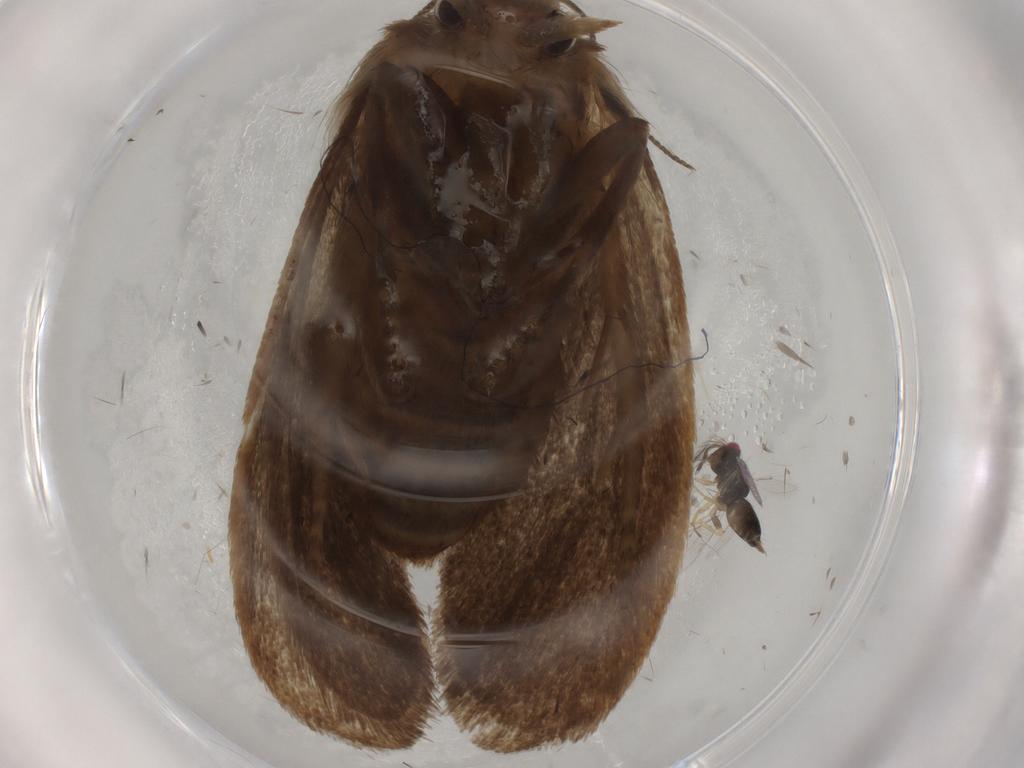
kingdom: Animalia
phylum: Arthropoda
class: Insecta
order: Lepidoptera
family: Tineidae
